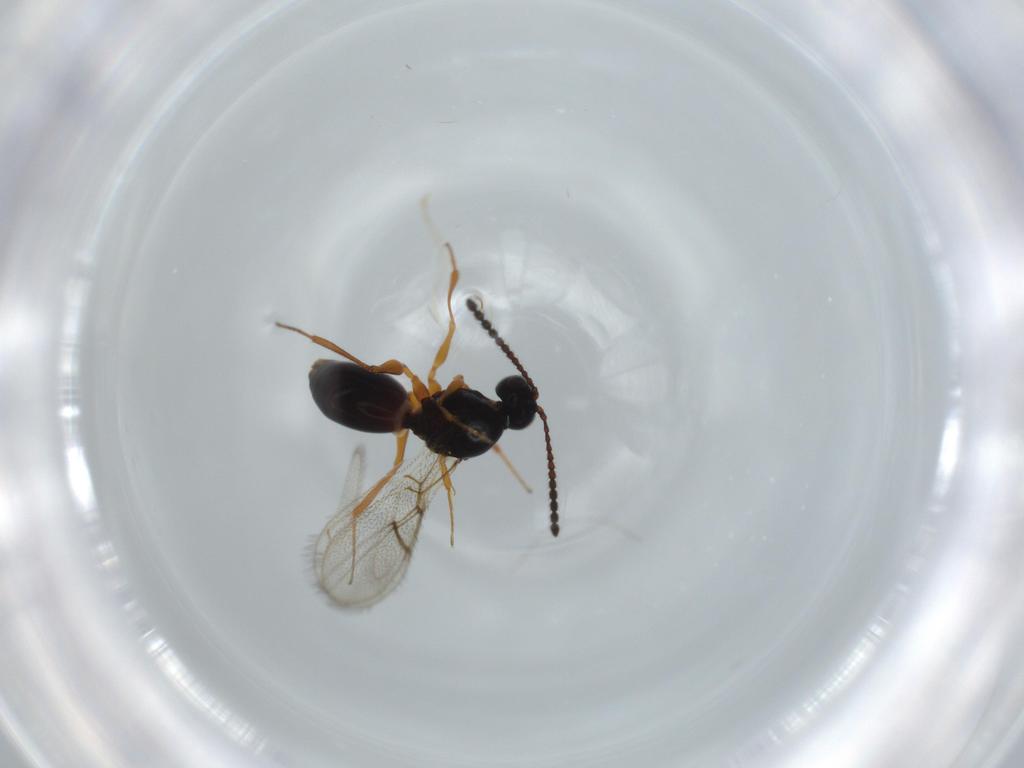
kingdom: Animalia
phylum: Arthropoda
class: Insecta
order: Hymenoptera
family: Figitidae
